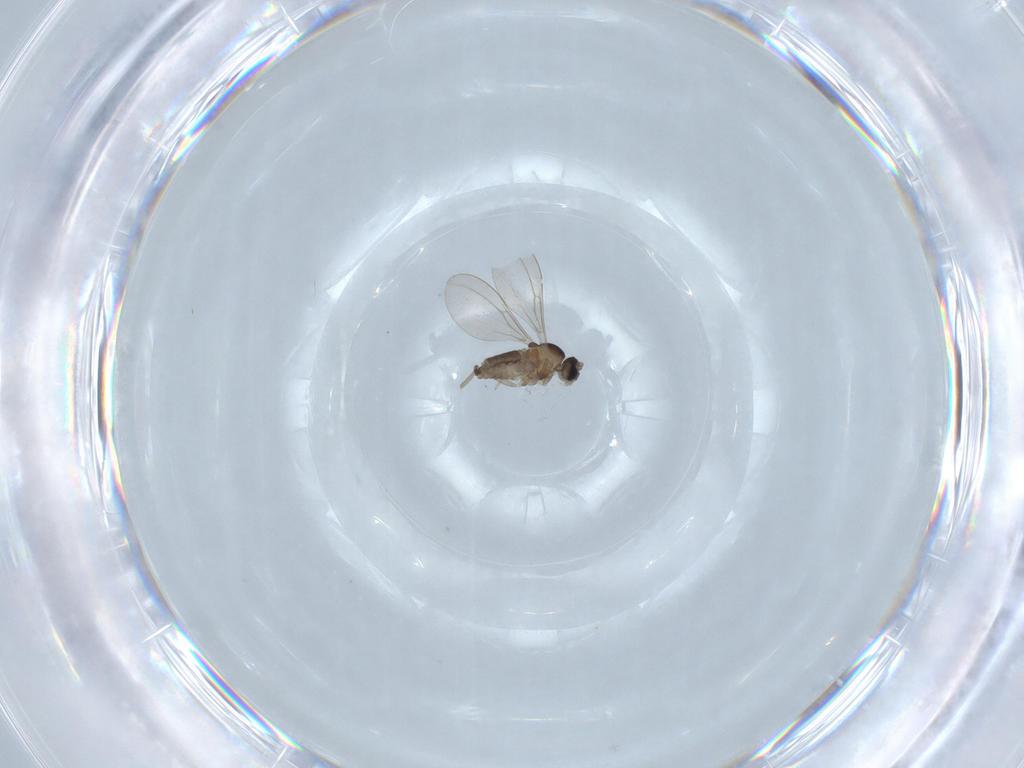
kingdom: Animalia
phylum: Arthropoda
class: Insecta
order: Diptera
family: Cecidomyiidae
